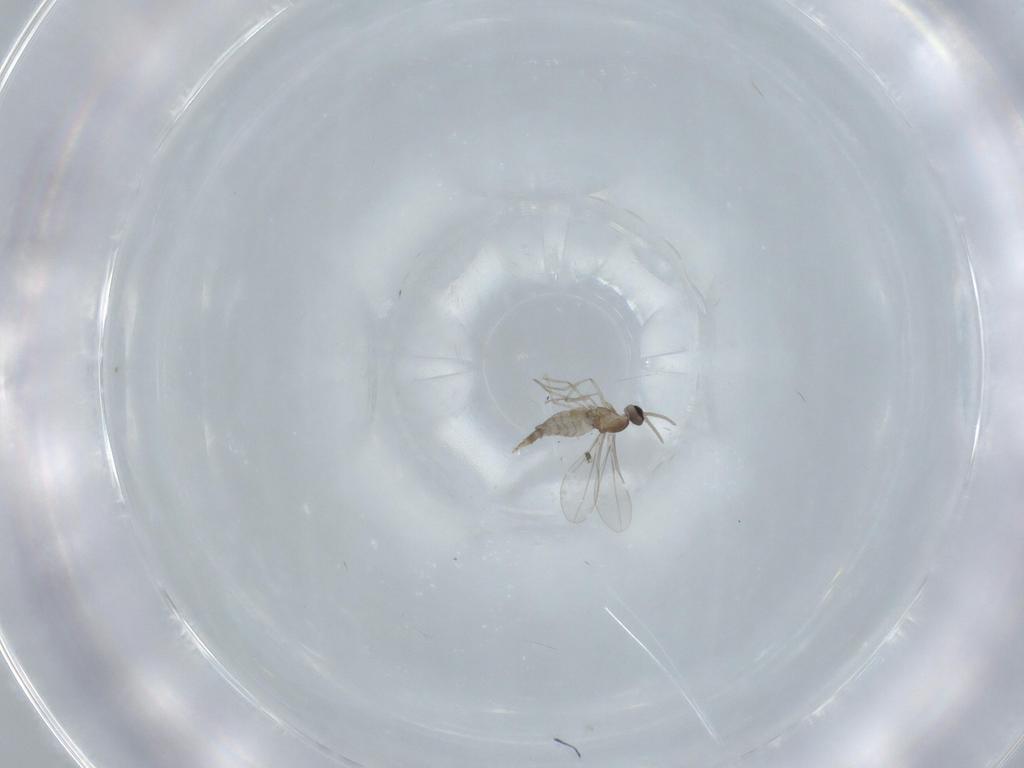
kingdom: Animalia
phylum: Arthropoda
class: Insecta
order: Diptera
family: Cecidomyiidae
